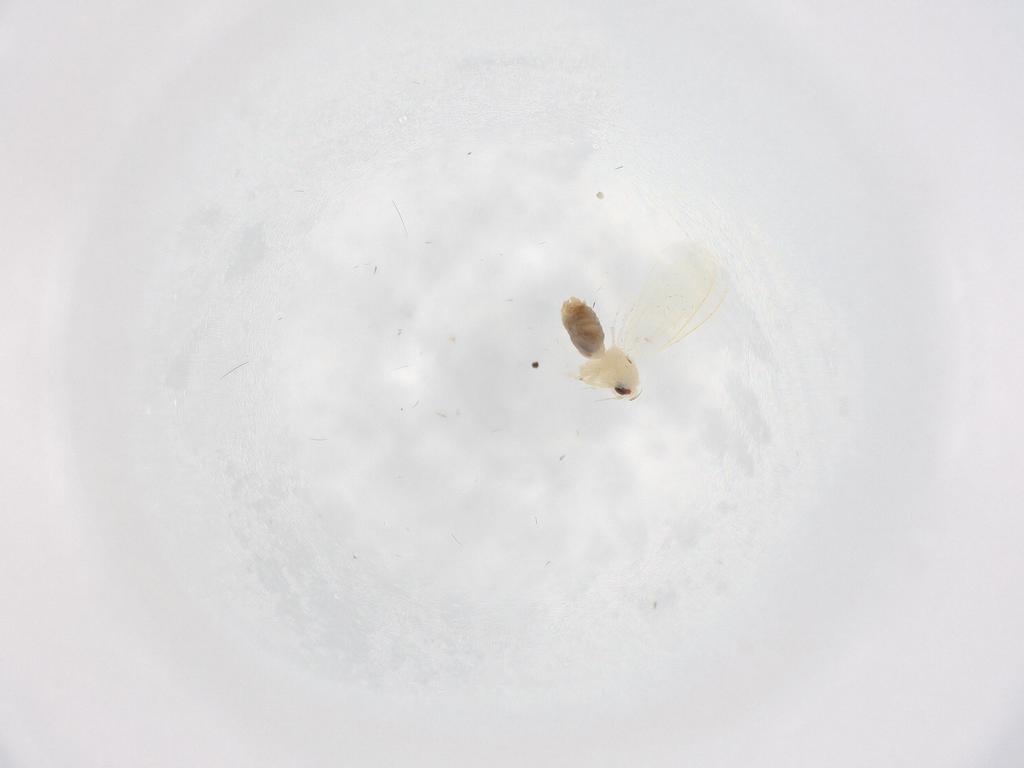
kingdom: Animalia
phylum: Arthropoda
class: Insecta
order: Hemiptera
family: Aleyrodidae
